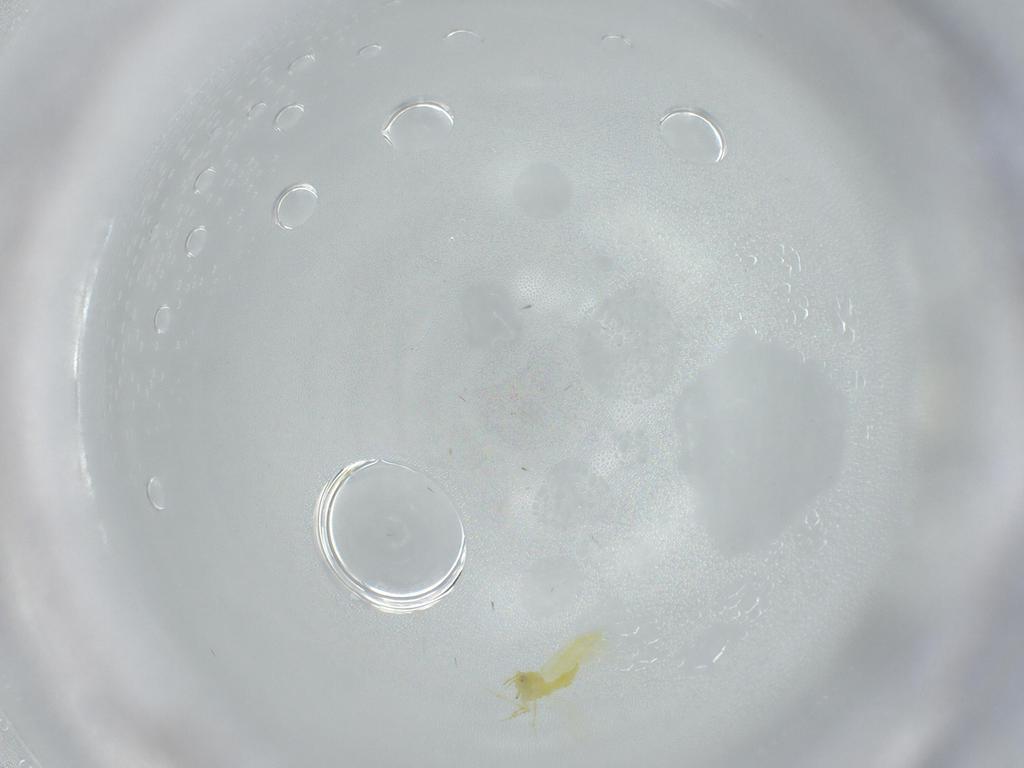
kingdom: Animalia
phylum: Arthropoda
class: Insecta
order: Hemiptera
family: Aleyrodidae
